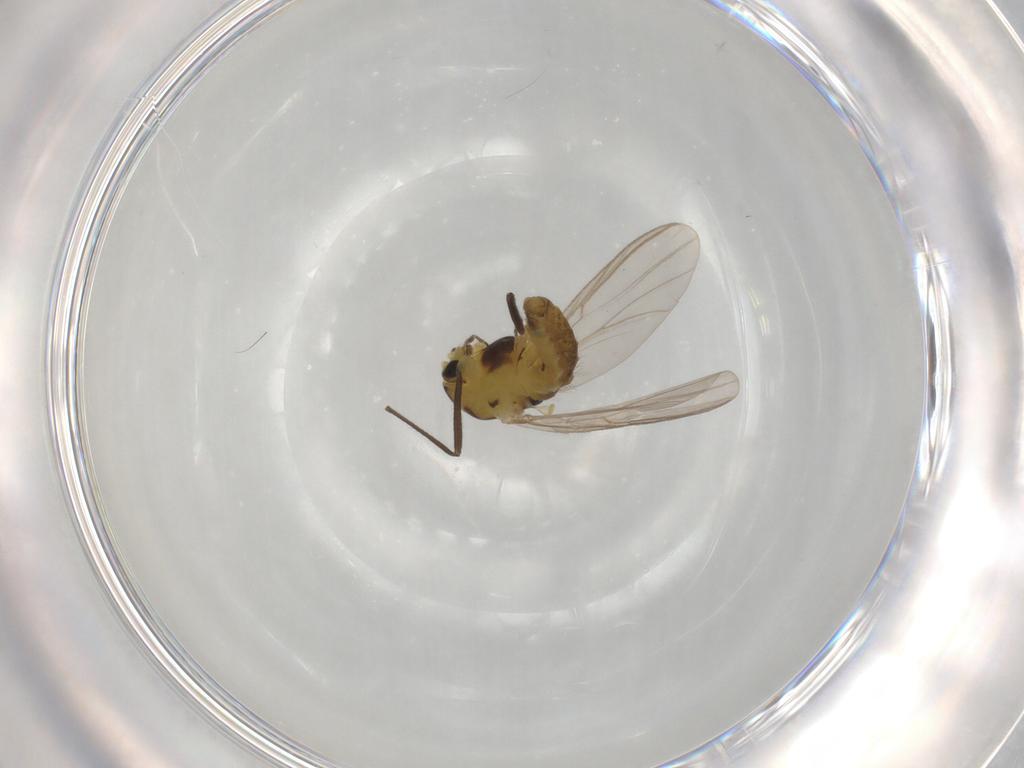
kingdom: Animalia
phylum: Arthropoda
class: Insecta
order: Diptera
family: Chironomidae
